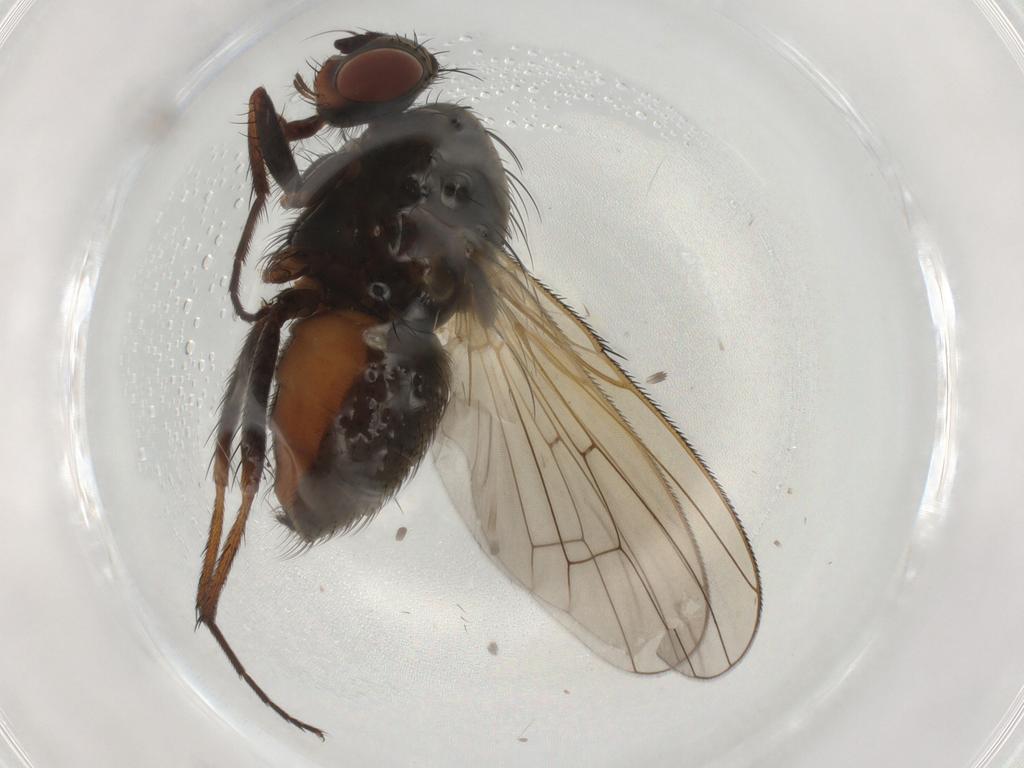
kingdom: Animalia
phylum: Arthropoda
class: Insecta
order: Diptera
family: Anthomyiidae
